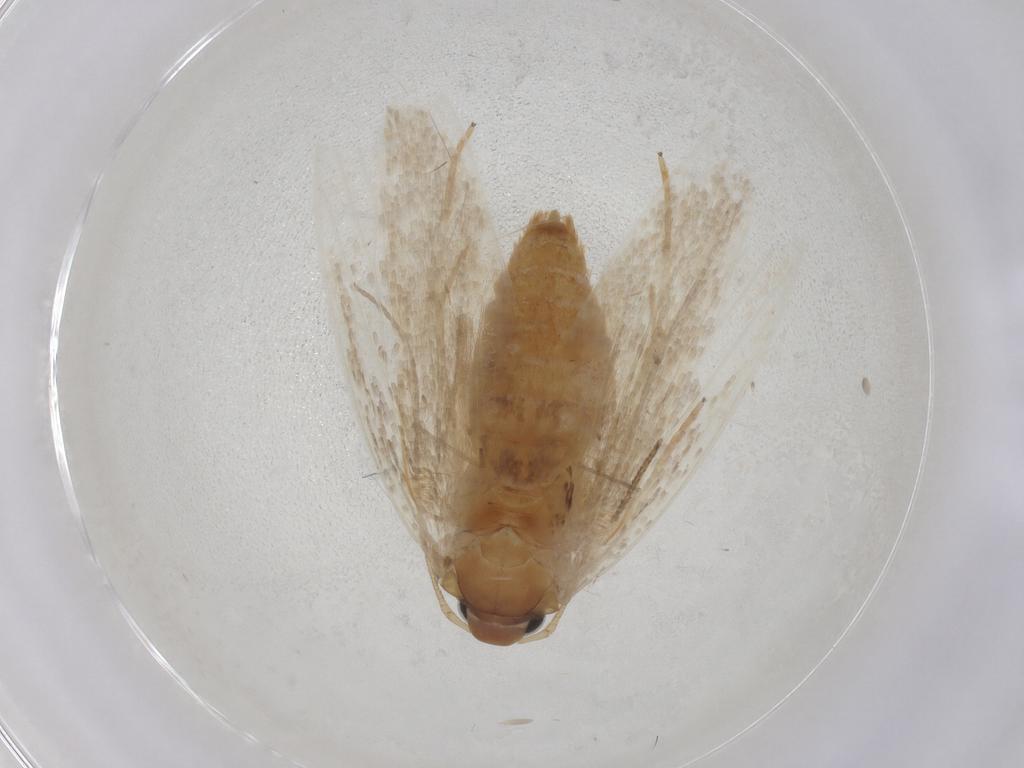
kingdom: Animalia
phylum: Arthropoda
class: Insecta
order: Lepidoptera
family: Oecophoridae
